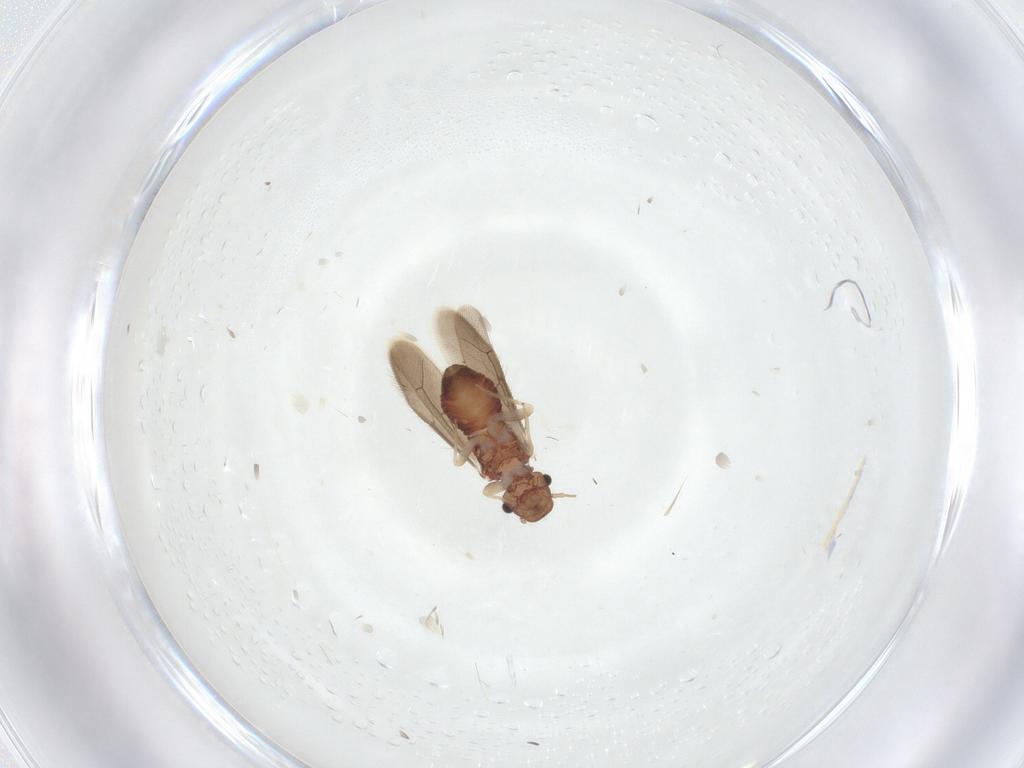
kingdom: Animalia
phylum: Arthropoda
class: Insecta
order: Psocodea
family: Archipsocidae
